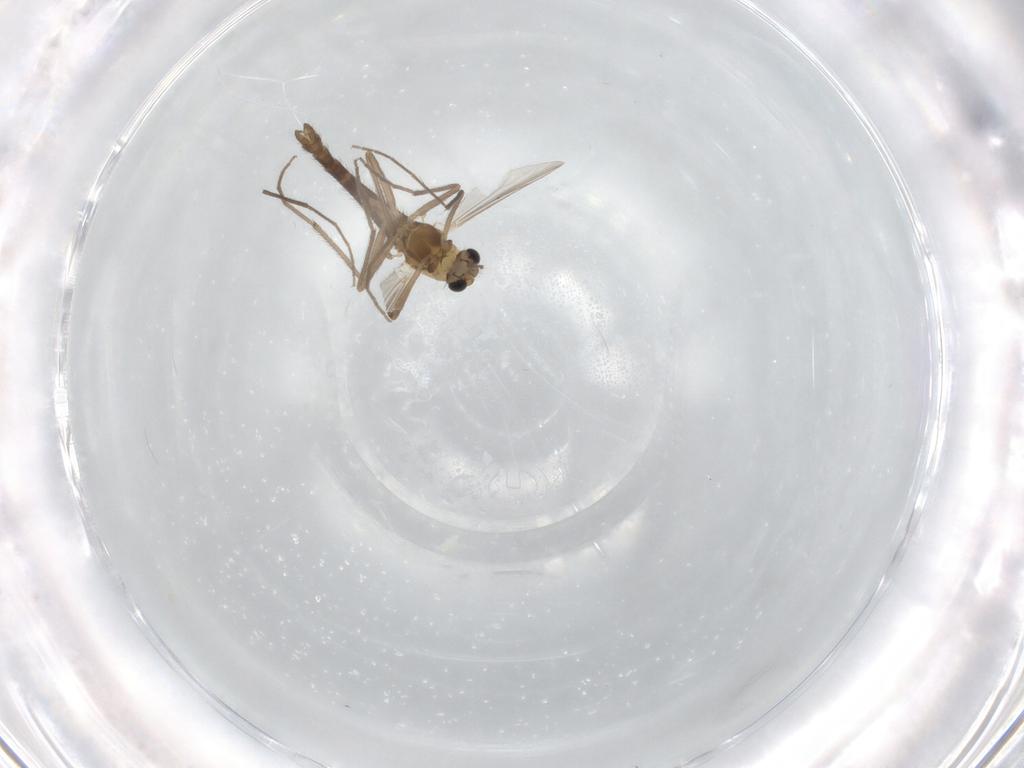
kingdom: Animalia
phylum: Arthropoda
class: Insecta
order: Diptera
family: Chironomidae
